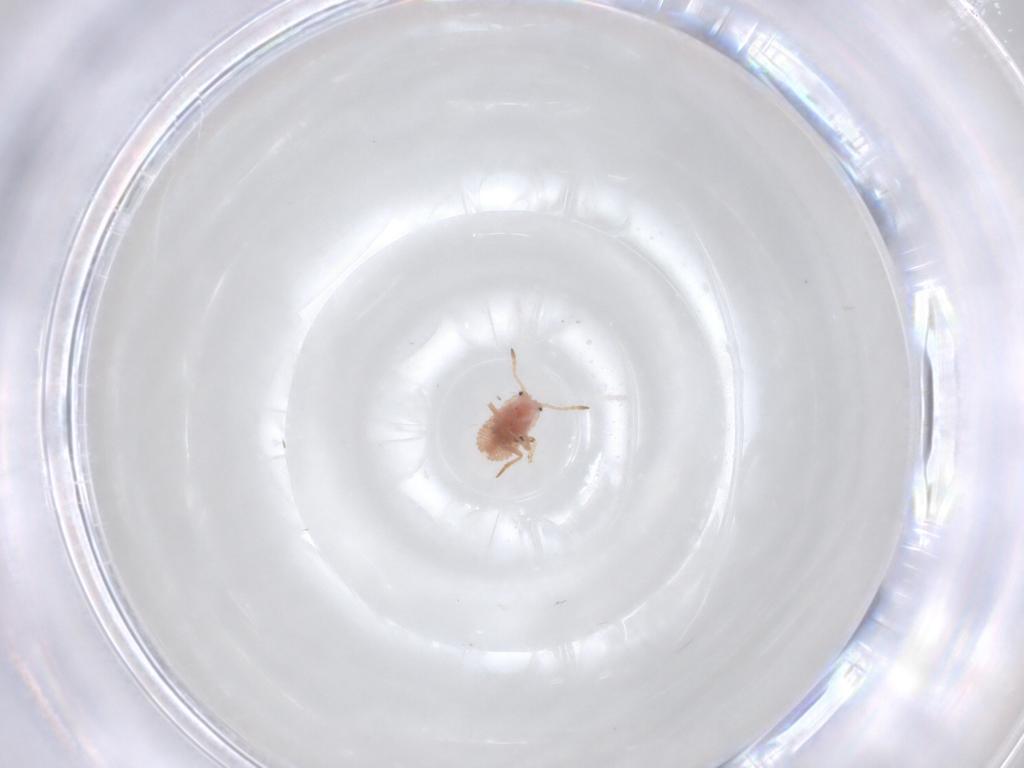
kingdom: Animalia
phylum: Arthropoda
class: Insecta
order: Hemiptera
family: Coccoidea_incertae_sedis
